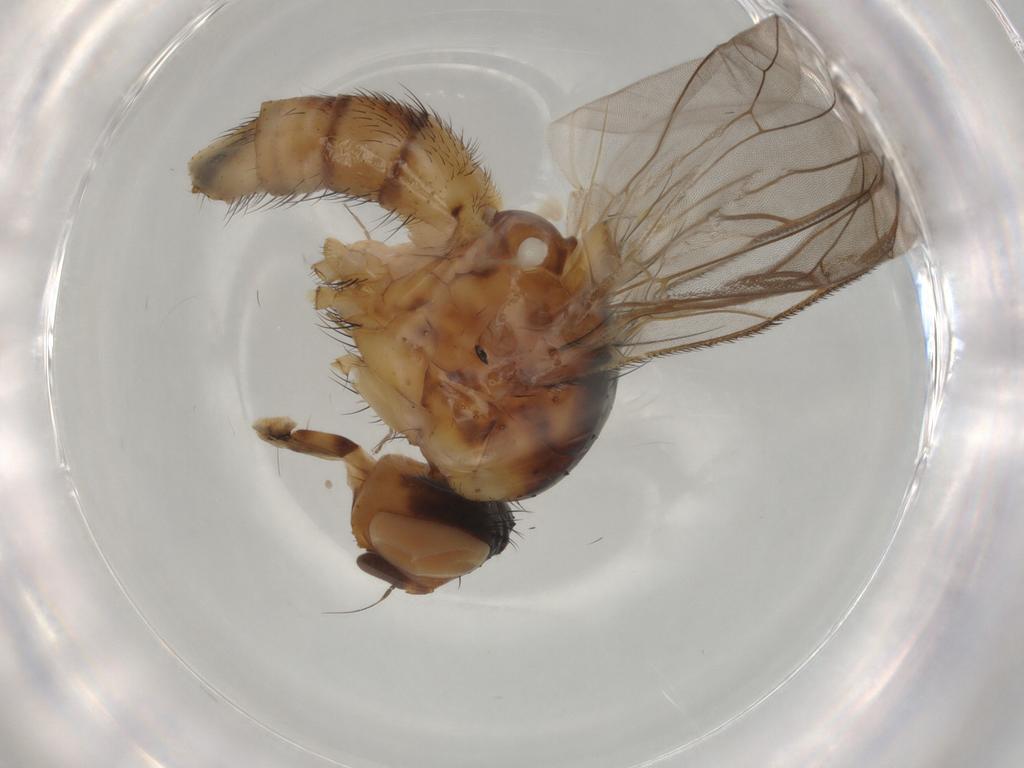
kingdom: Animalia
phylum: Arthropoda
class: Insecta
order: Diptera
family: Anthomyiidae
